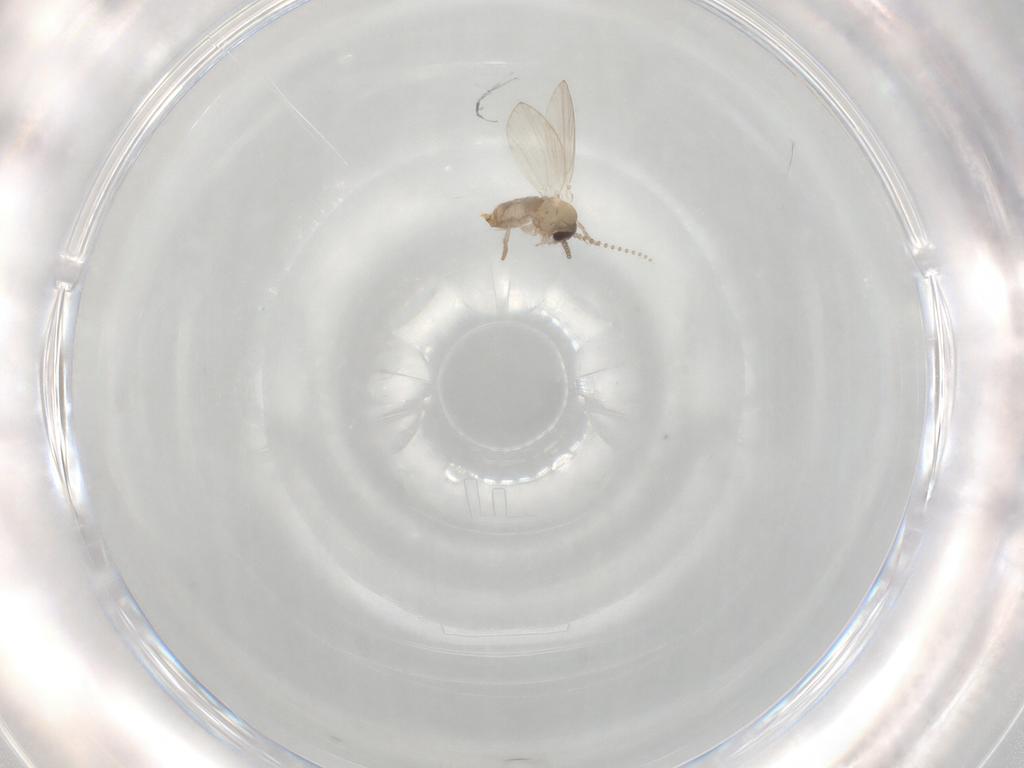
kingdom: Animalia
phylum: Arthropoda
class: Insecta
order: Diptera
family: Psychodidae
